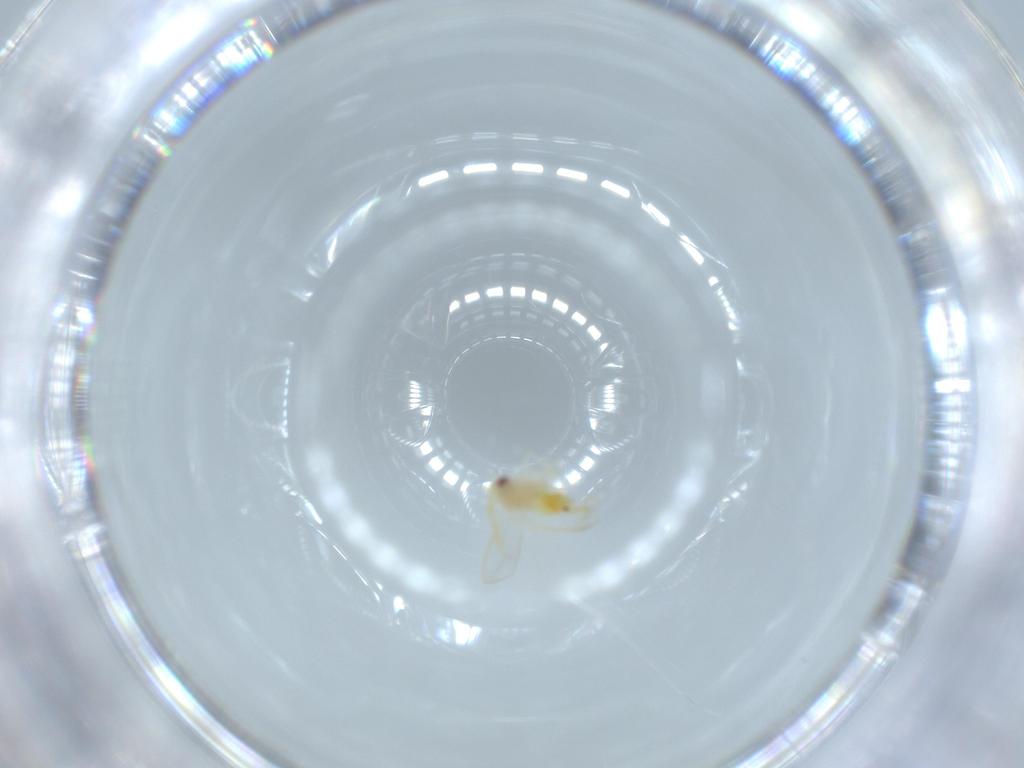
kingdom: Animalia
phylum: Arthropoda
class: Insecta
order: Hemiptera
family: Aleyrodidae
